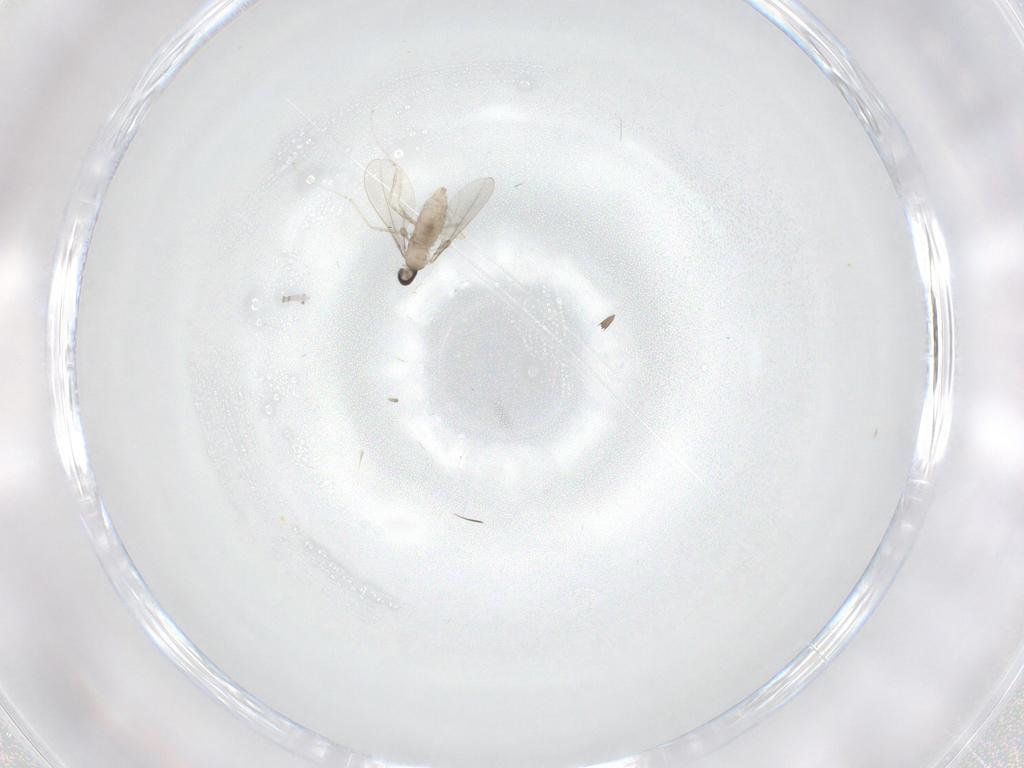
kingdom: Animalia
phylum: Arthropoda
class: Insecta
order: Diptera
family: Cecidomyiidae
